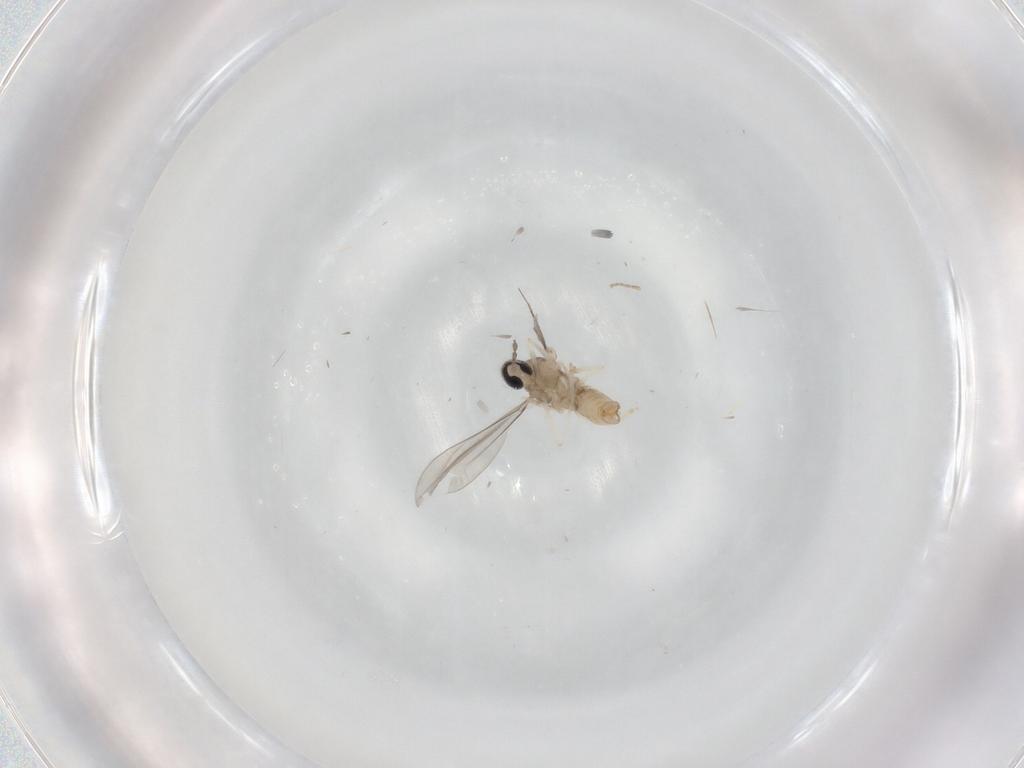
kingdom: Animalia
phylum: Arthropoda
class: Insecta
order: Diptera
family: Cecidomyiidae
